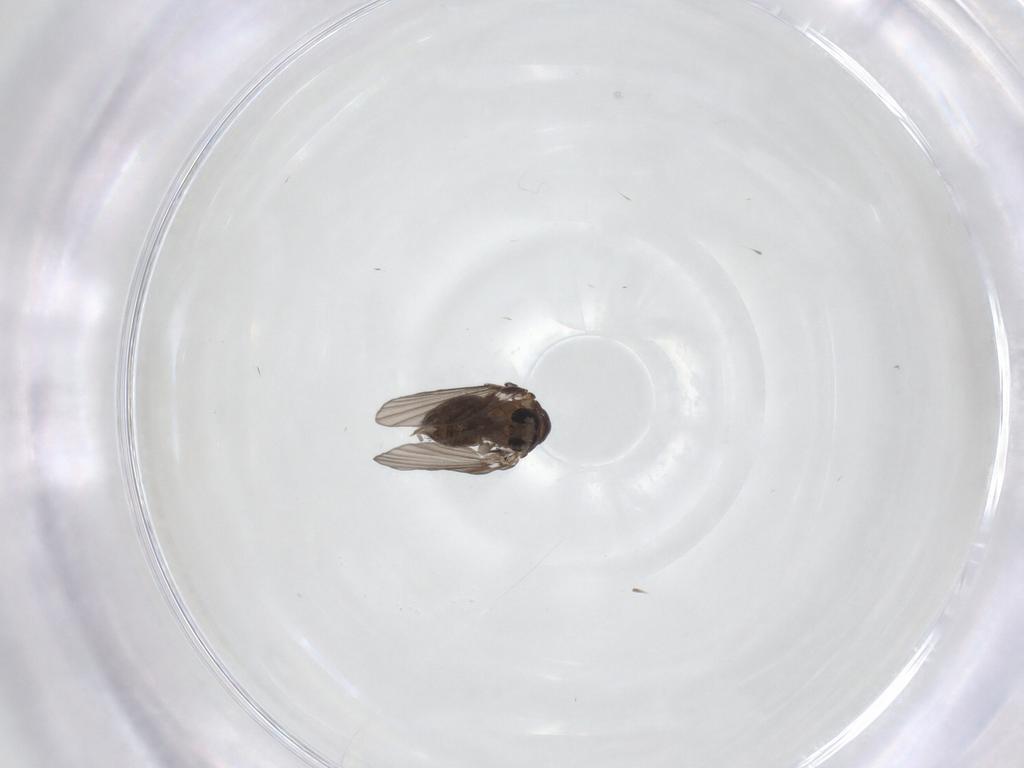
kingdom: Animalia
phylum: Arthropoda
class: Insecta
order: Diptera
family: Psychodidae
